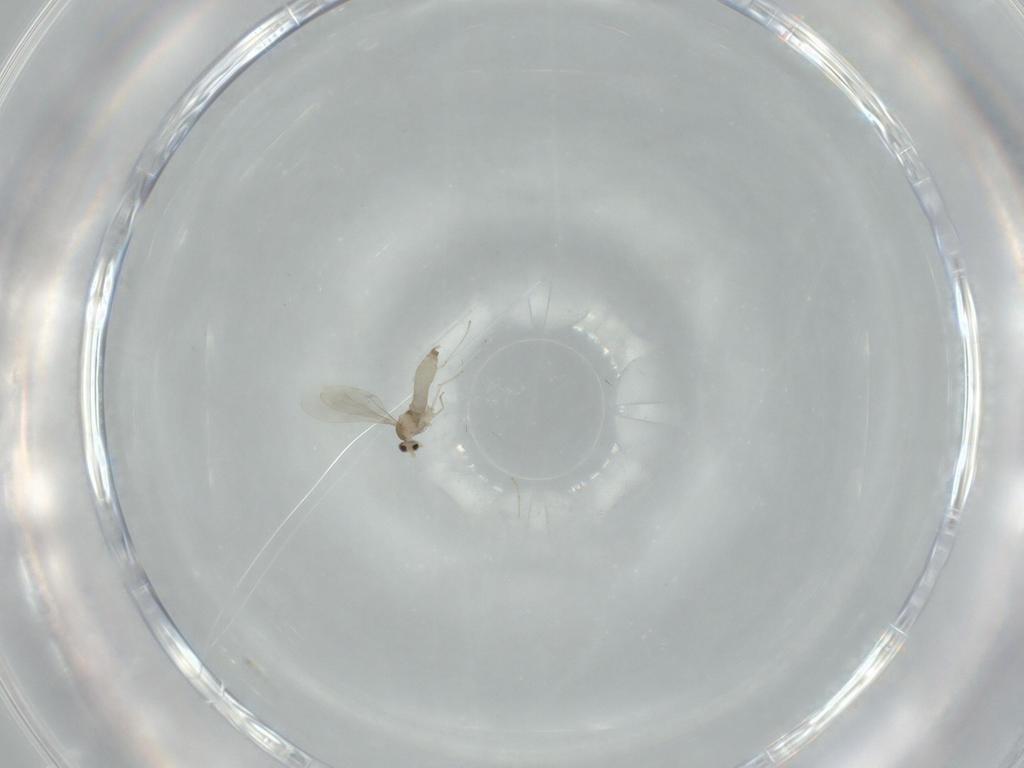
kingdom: Animalia
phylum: Arthropoda
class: Insecta
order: Diptera
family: Cecidomyiidae
